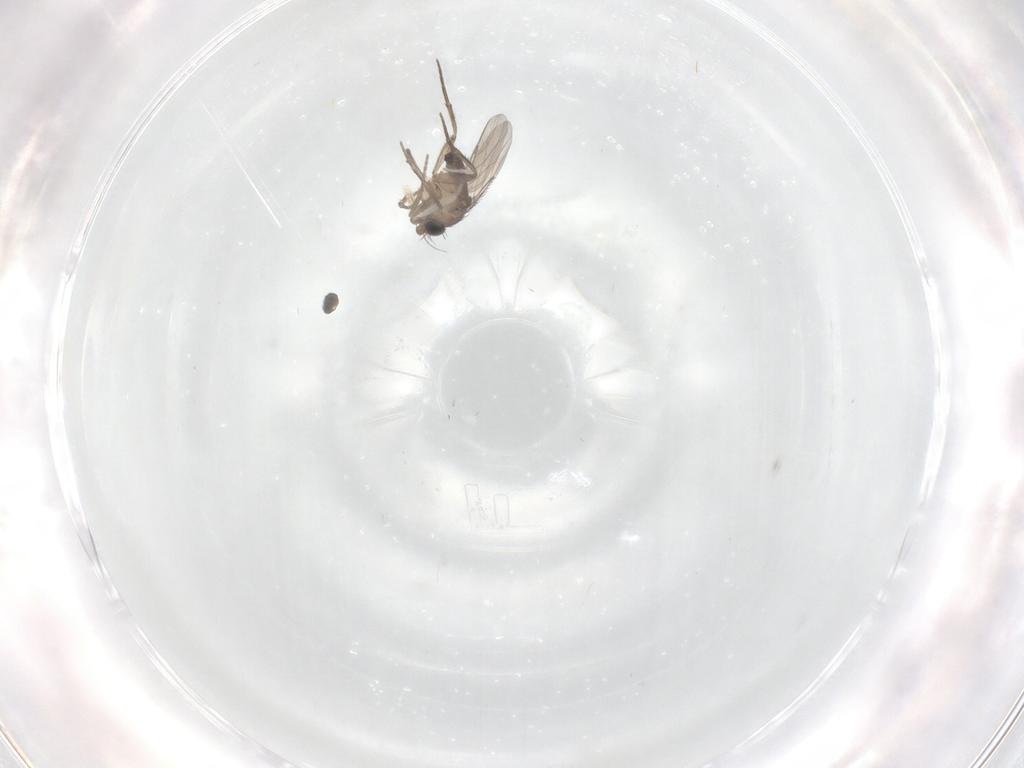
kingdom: Animalia
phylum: Arthropoda
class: Insecta
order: Diptera
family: Phoridae
